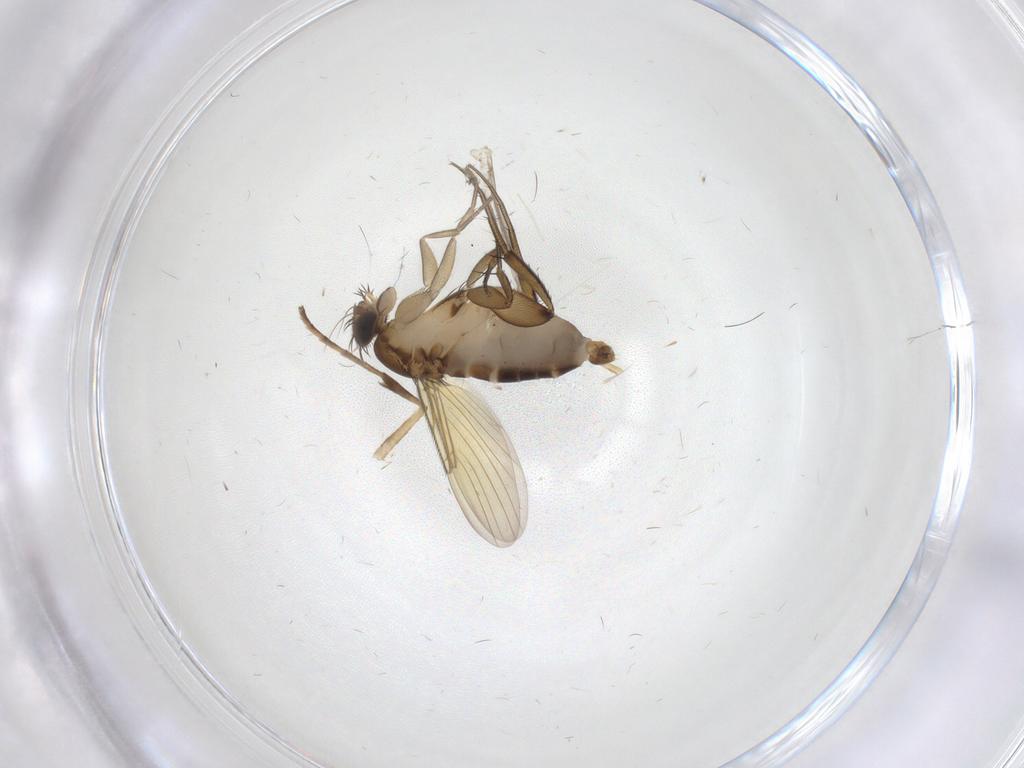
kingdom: Animalia
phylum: Arthropoda
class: Insecta
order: Diptera
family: Phoridae
